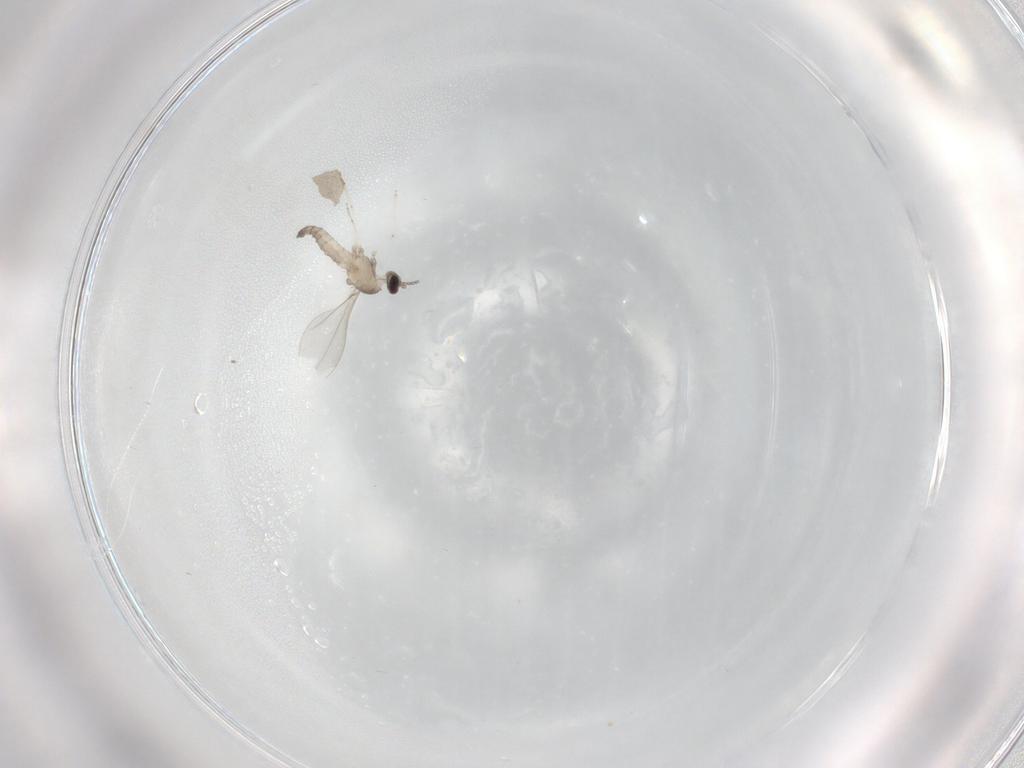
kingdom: Animalia
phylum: Arthropoda
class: Insecta
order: Diptera
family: Cecidomyiidae
